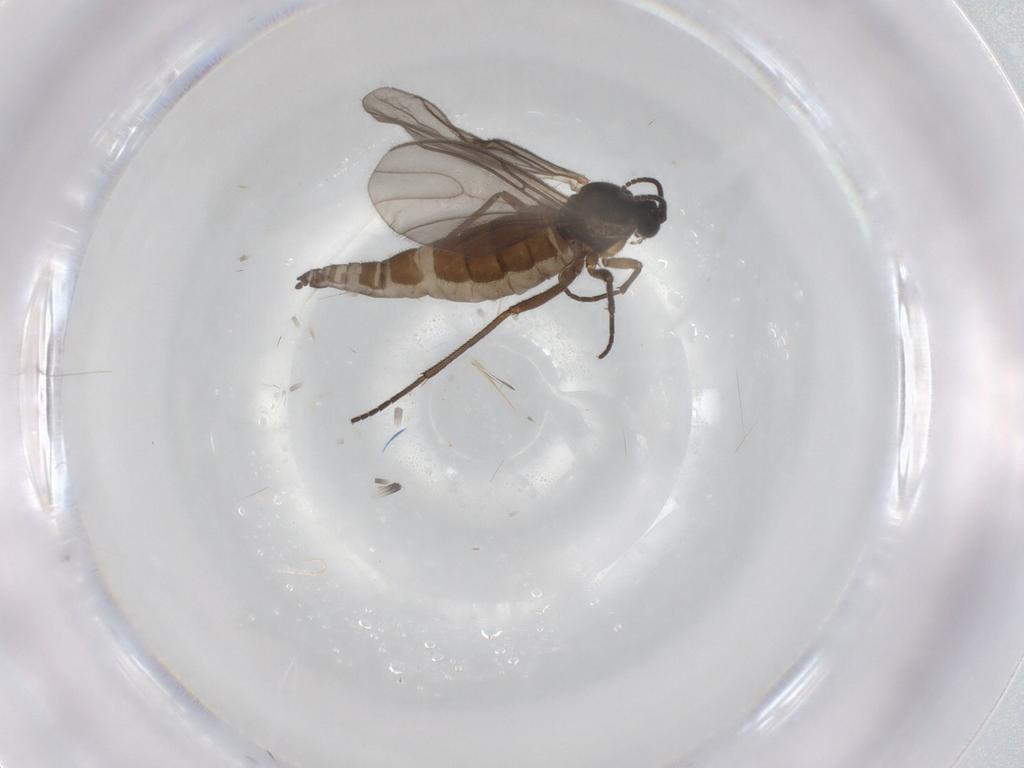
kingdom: Animalia
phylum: Arthropoda
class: Insecta
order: Diptera
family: Sciaridae
